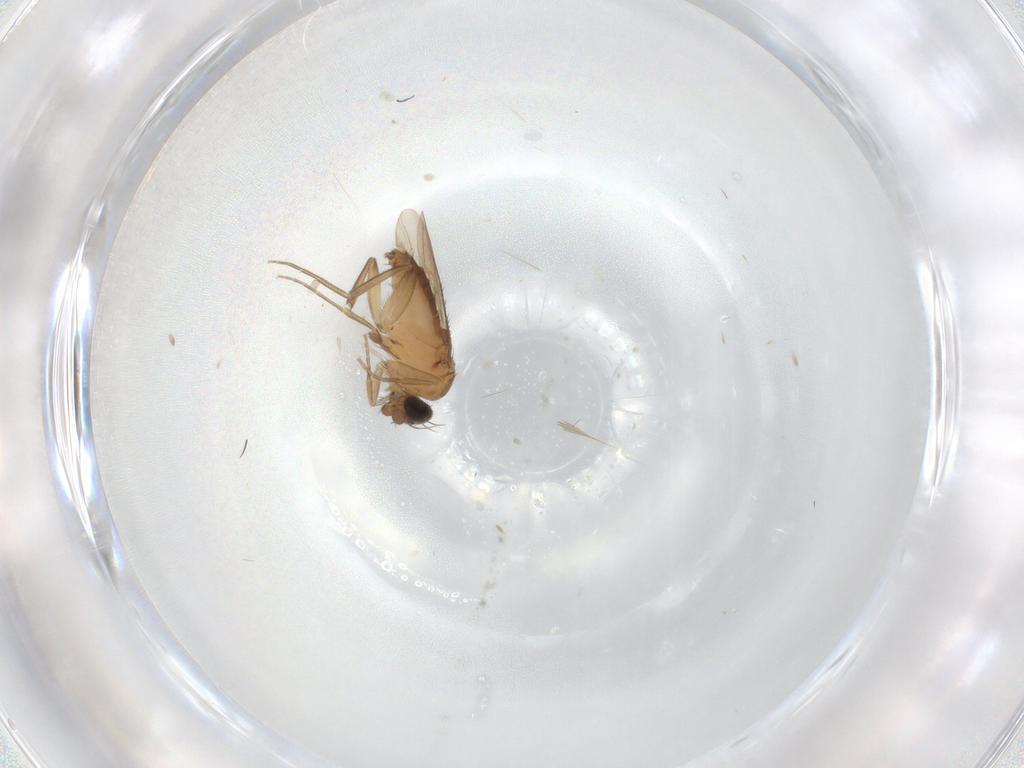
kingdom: Animalia
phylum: Arthropoda
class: Insecta
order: Diptera
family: Phoridae
